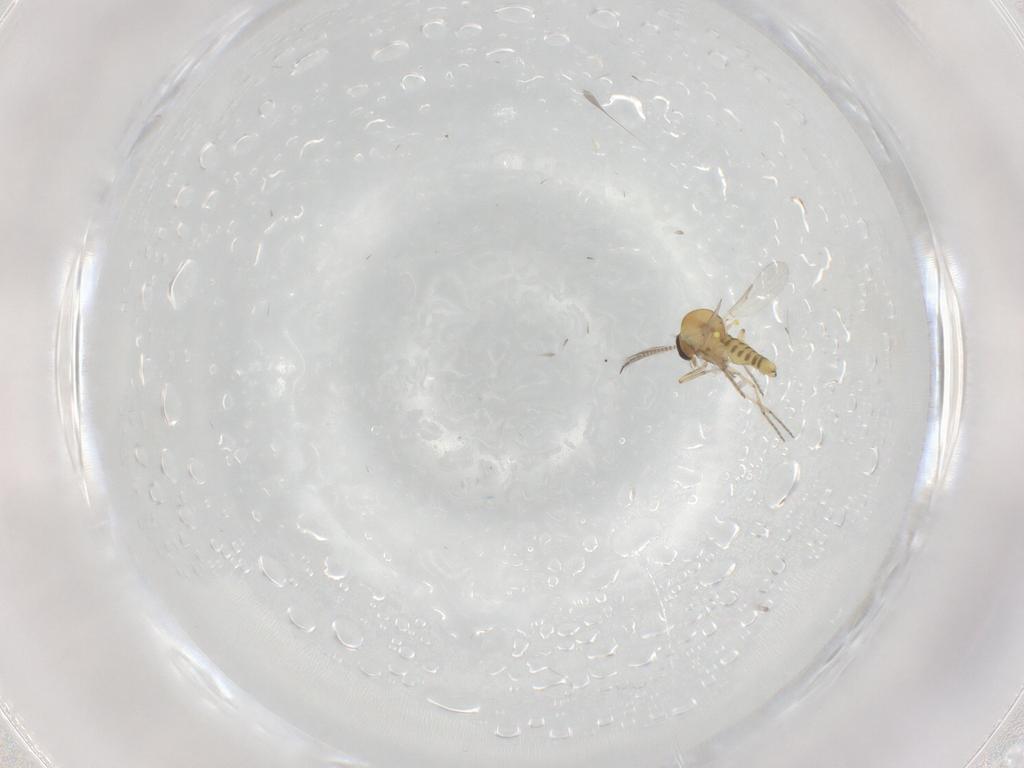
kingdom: Animalia
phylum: Arthropoda
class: Insecta
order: Diptera
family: Ceratopogonidae
